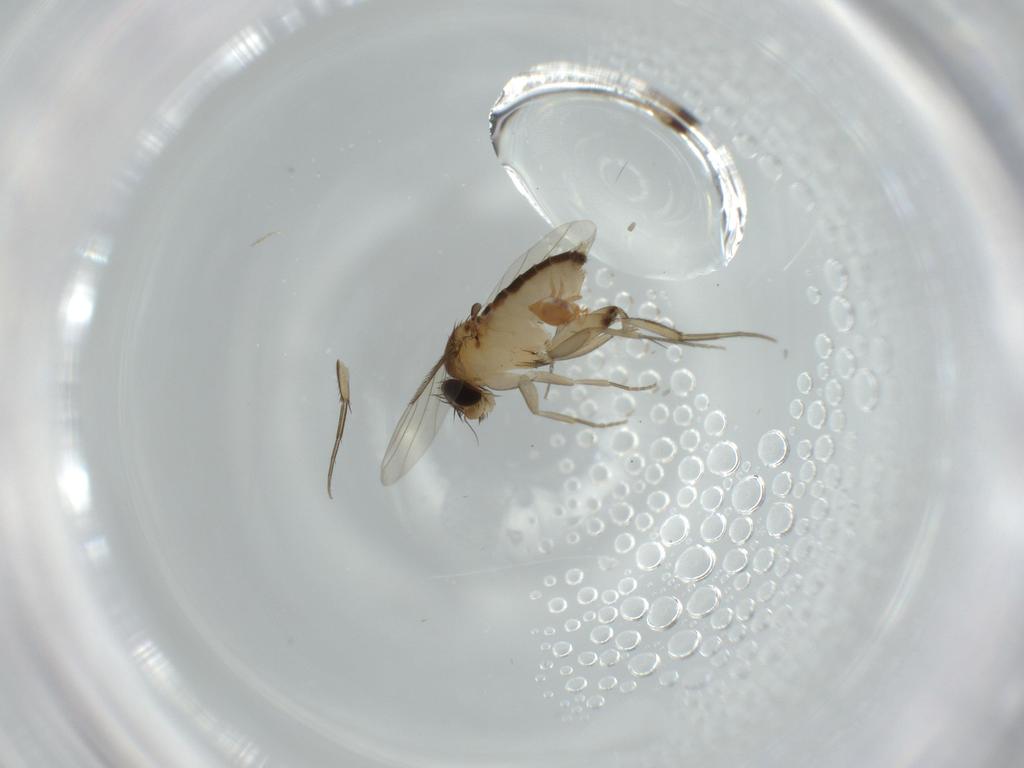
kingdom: Animalia
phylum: Arthropoda
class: Insecta
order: Diptera
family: Phoridae
